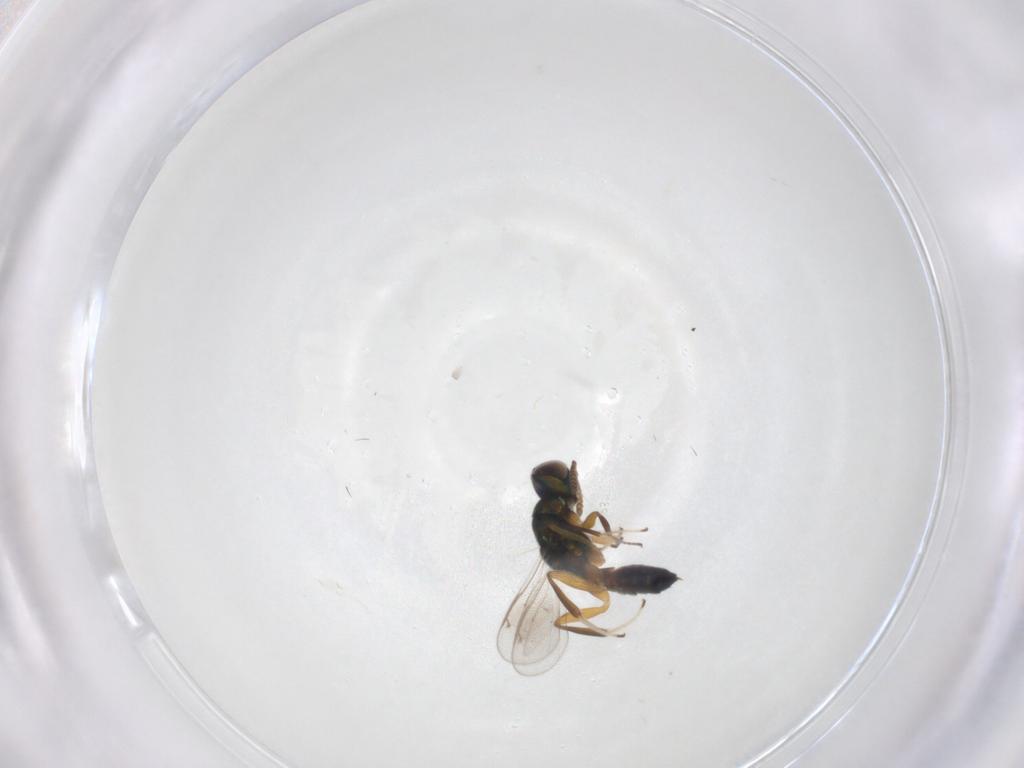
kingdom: Animalia
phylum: Arthropoda
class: Insecta
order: Hymenoptera
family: Cleonyminae
